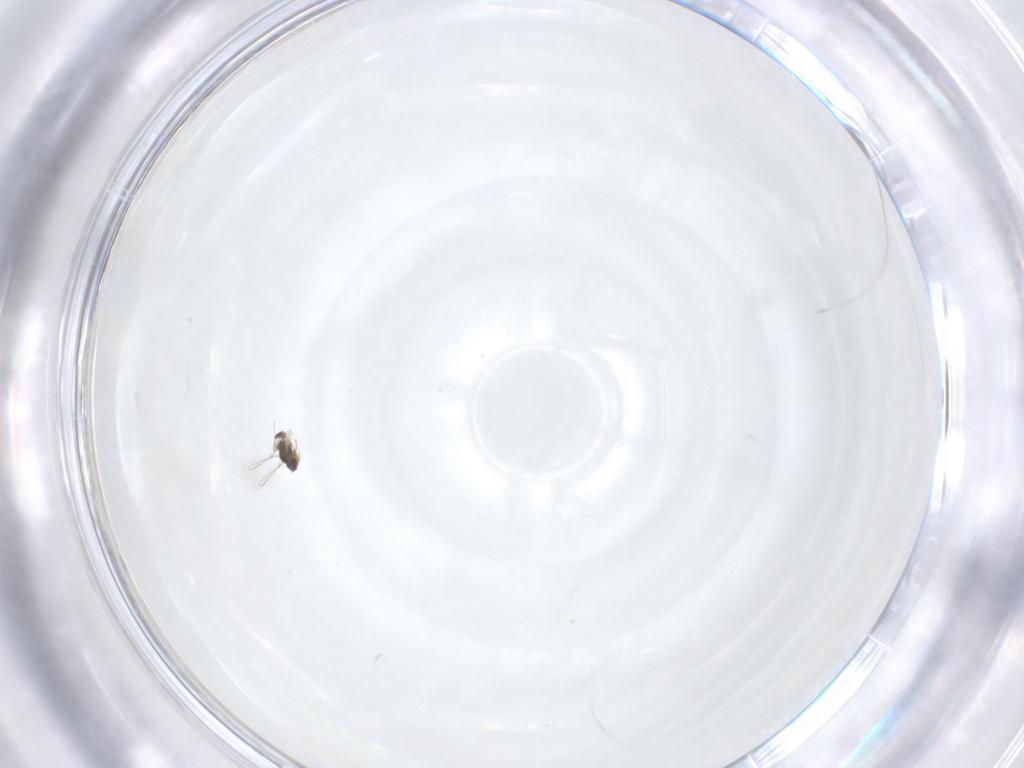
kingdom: Animalia
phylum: Arthropoda
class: Insecta
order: Hymenoptera
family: Mymaridae
